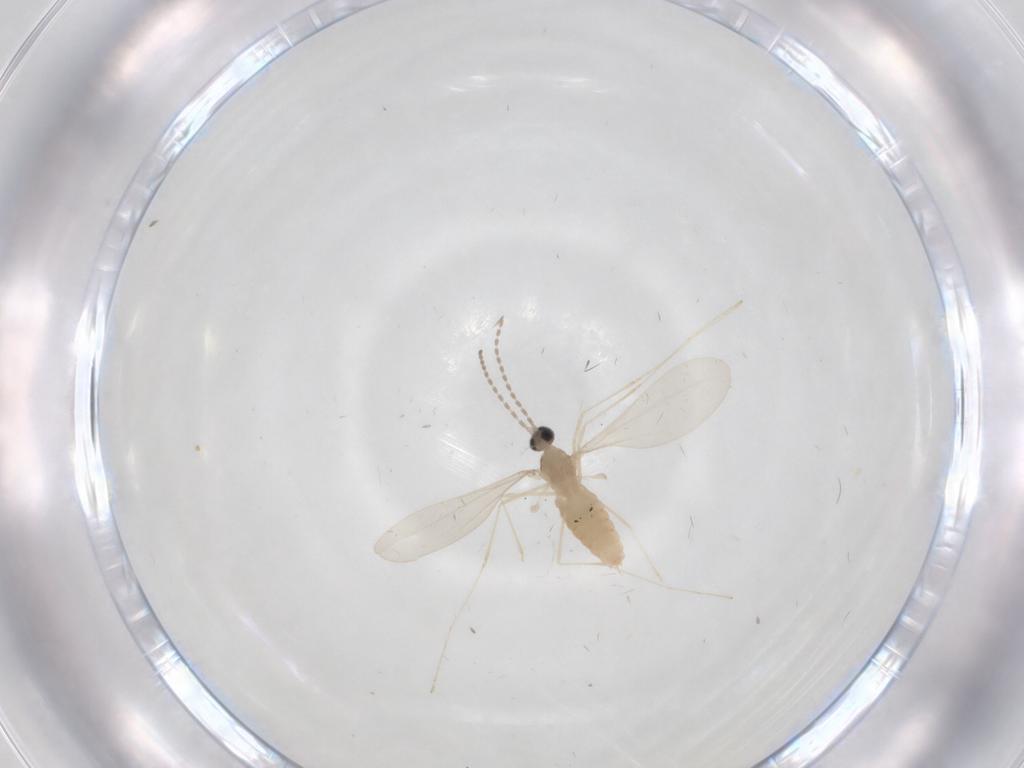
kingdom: Animalia
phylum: Arthropoda
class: Insecta
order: Diptera
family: Cecidomyiidae
